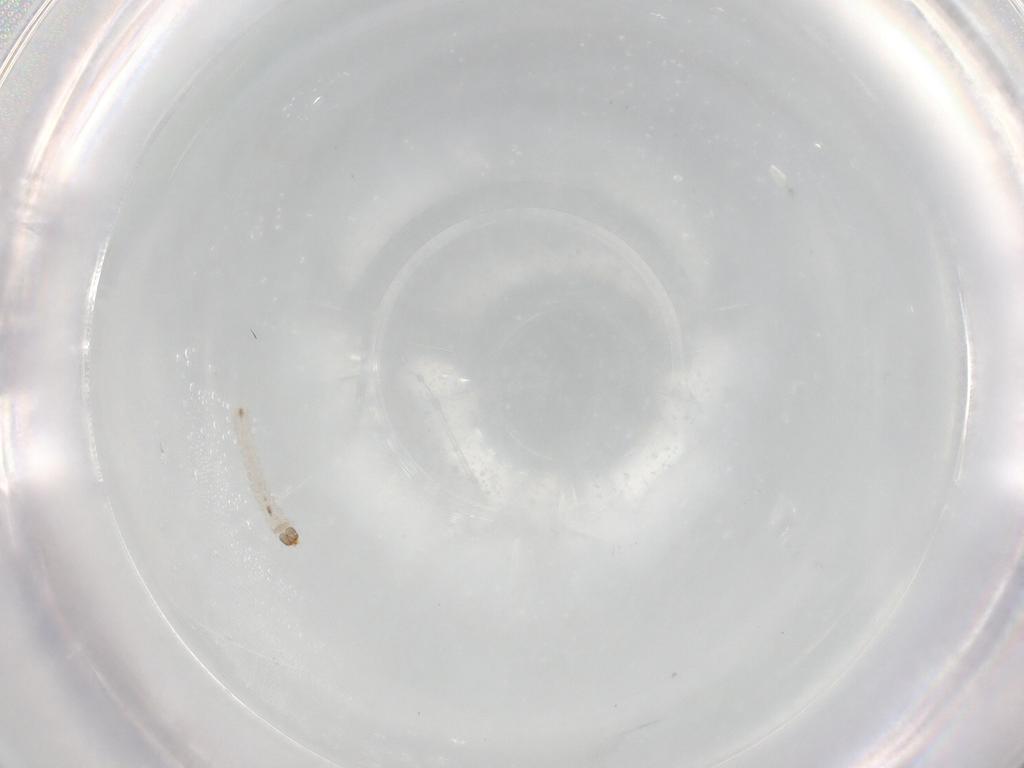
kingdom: Animalia
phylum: Arthropoda
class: Insecta
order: Lepidoptera
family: Tineidae
